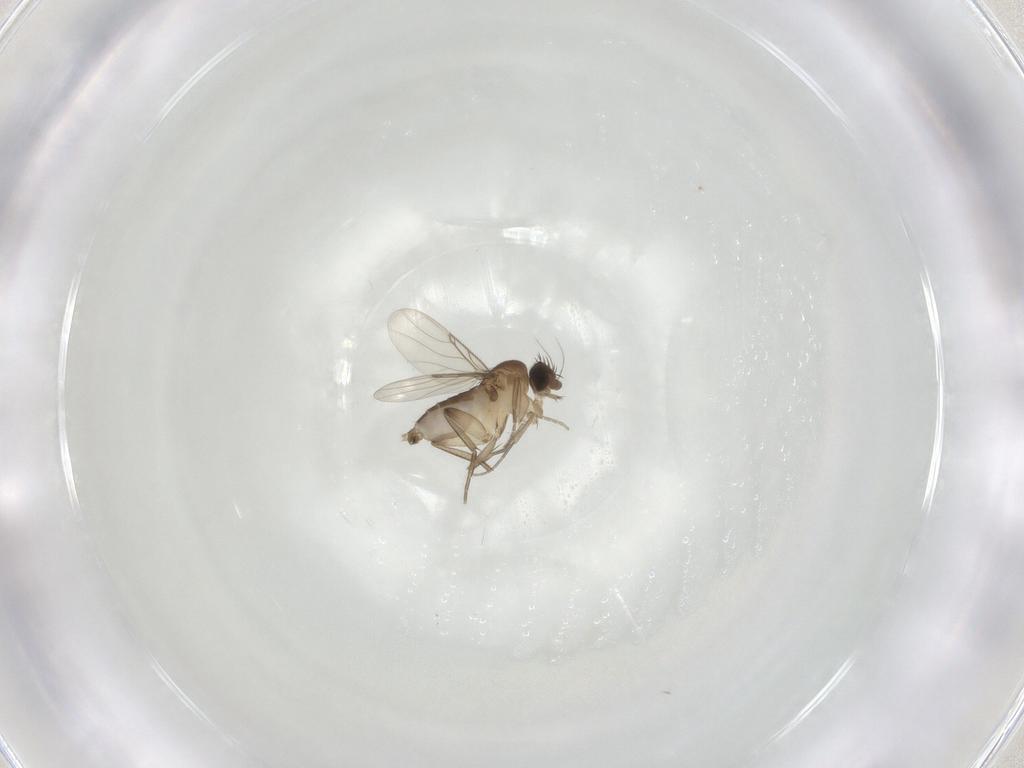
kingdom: Animalia
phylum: Arthropoda
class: Insecta
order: Diptera
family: Phoridae
